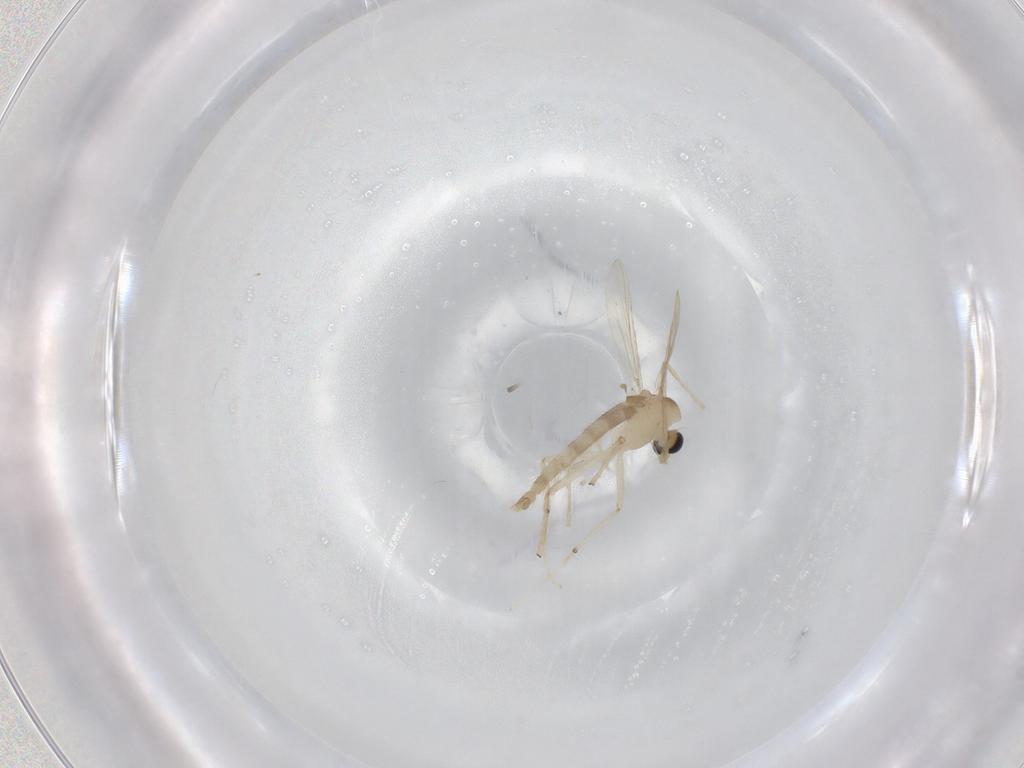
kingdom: Animalia
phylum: Arthropoda
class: Insecta
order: Diptera
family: Chironomidae
